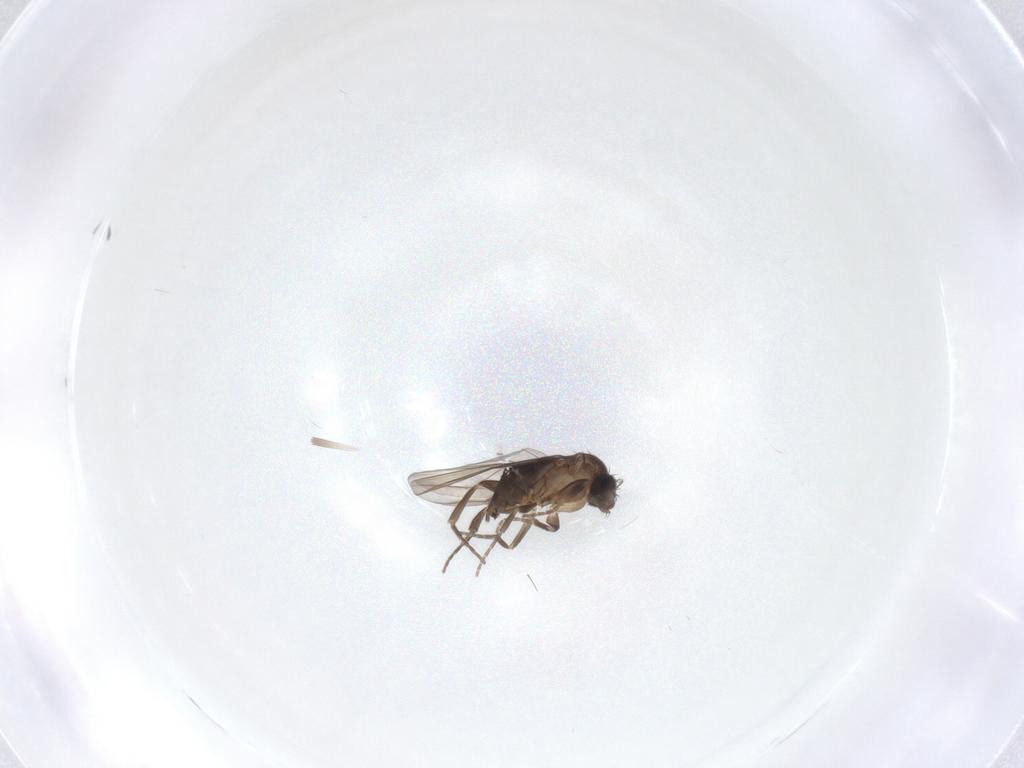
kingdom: Animalia
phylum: Arthropoda
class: Insecta
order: Diptera
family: Phoridae
